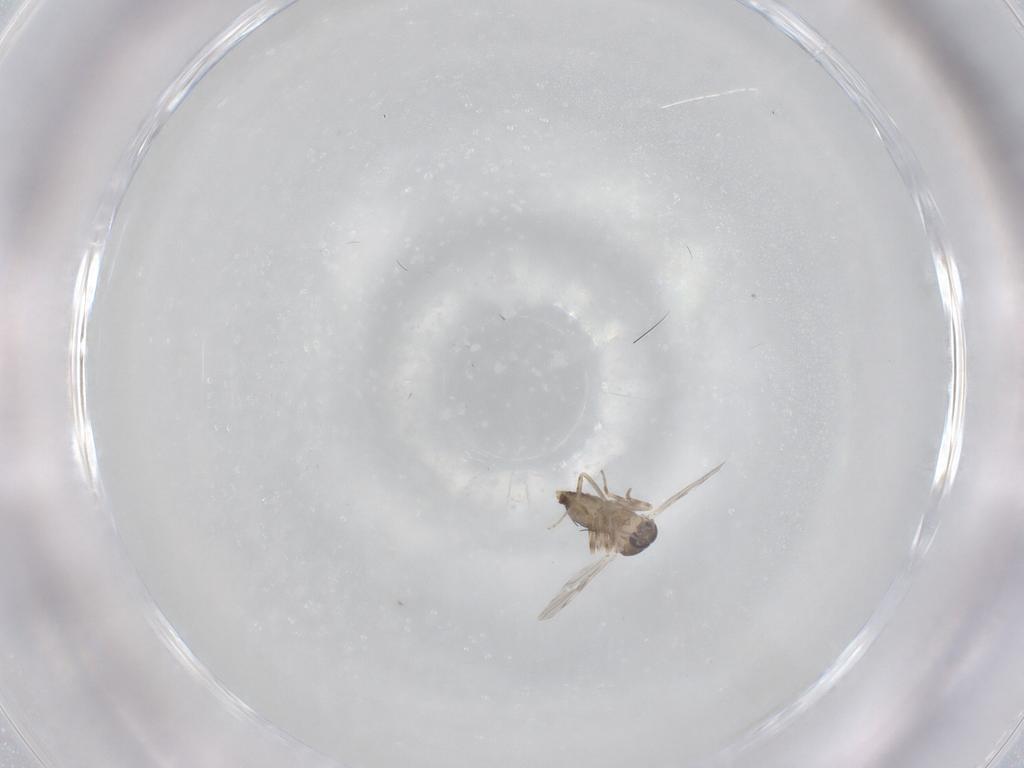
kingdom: Animalia
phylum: Arthropoda
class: Insecta
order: Diptera
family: Ceratopogonidae
